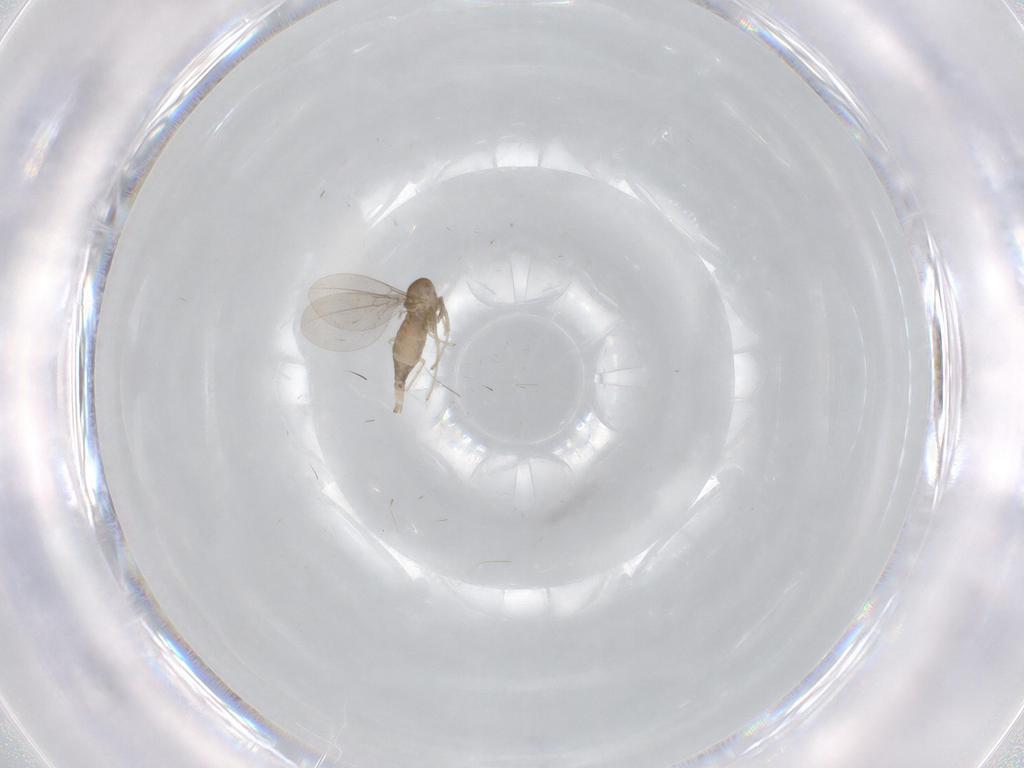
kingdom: Animalia
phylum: Arthropoda
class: Insecta
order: Diptera
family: Cecidomyiidae
